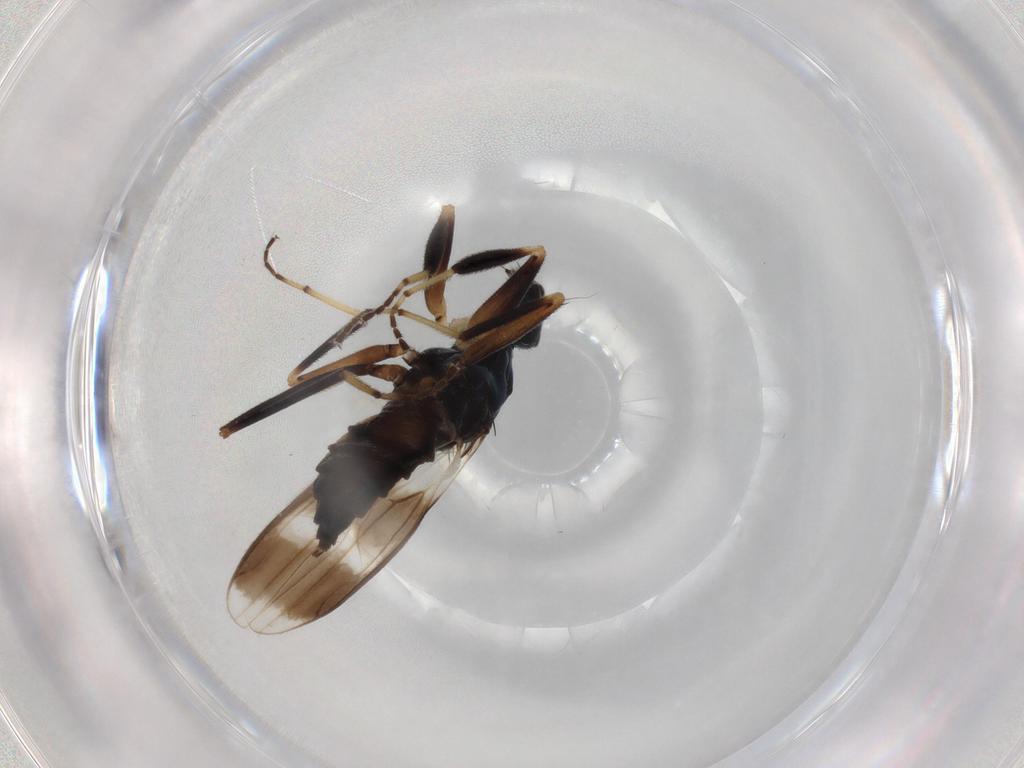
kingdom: Animalia
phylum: Arthropoda
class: Insecta
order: Diptera
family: Hybotidae
